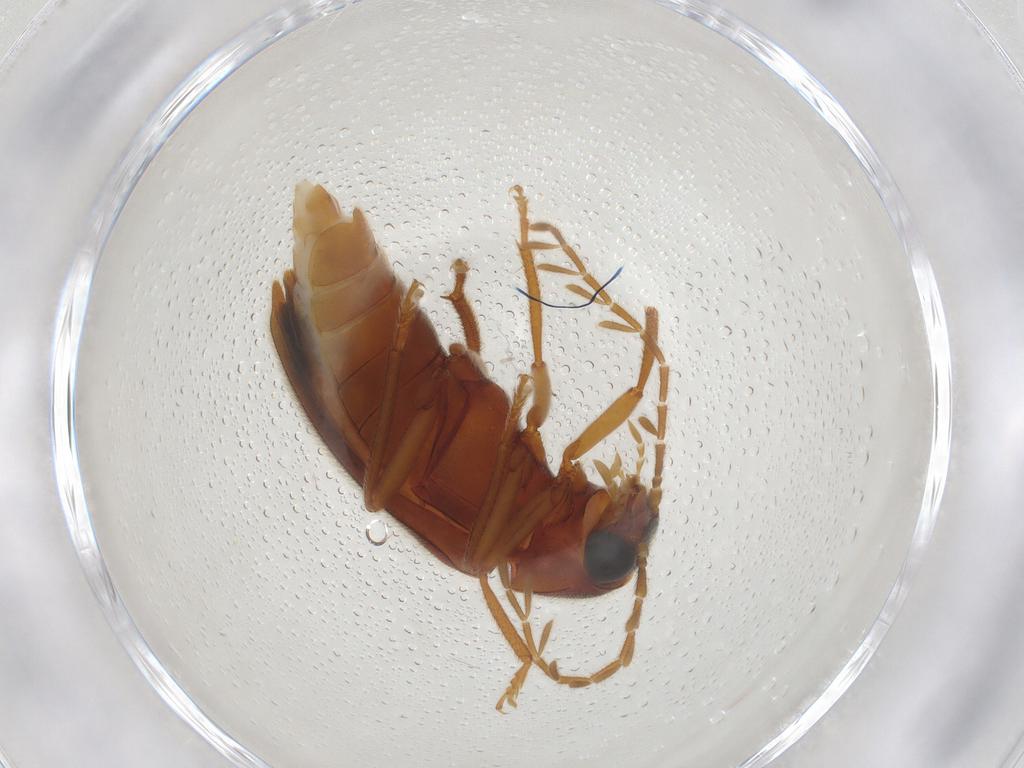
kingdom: Animalia
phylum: Arthropoda
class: Insecta
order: Coleoptera
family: Ptilodactylidae
